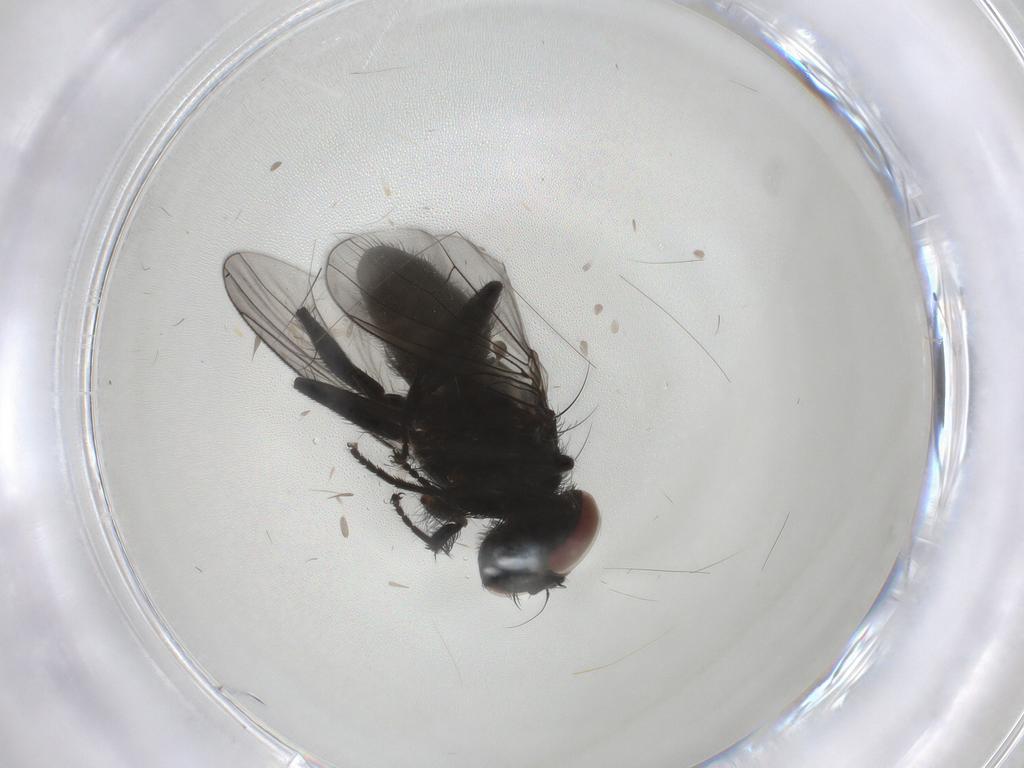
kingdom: Animalia
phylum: Arthropoda
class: Insecta
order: Diptera
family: Muscidae
